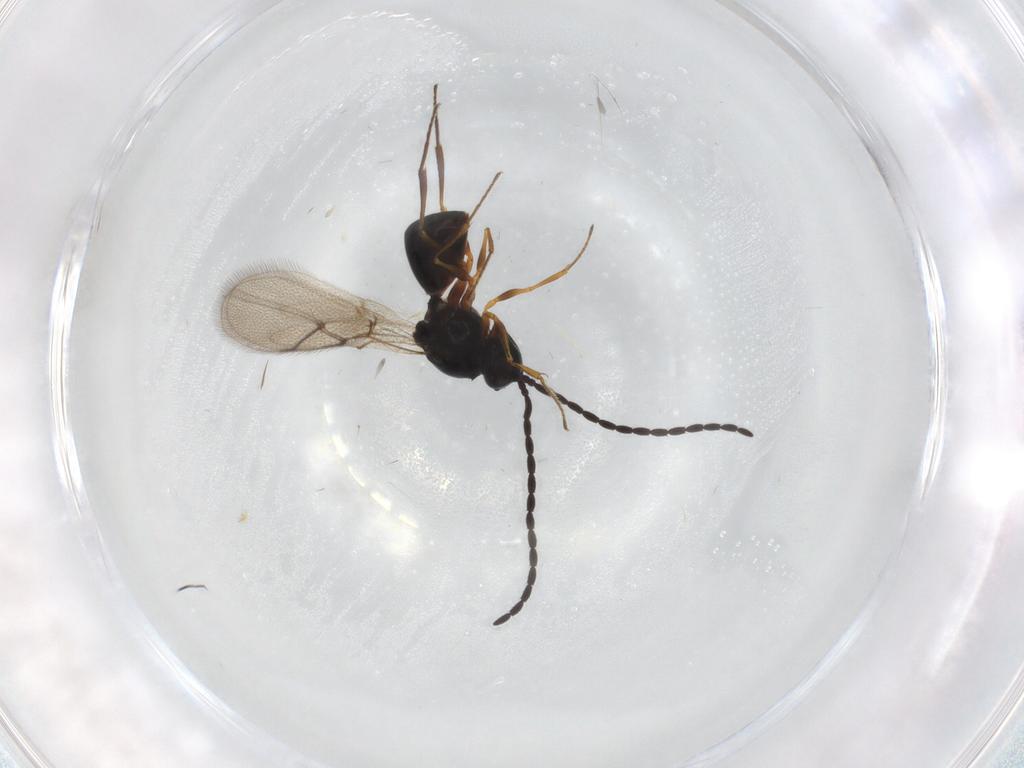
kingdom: Animalia
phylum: Arthropoda
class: Insecta
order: Hymenoptera
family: Figitidae
